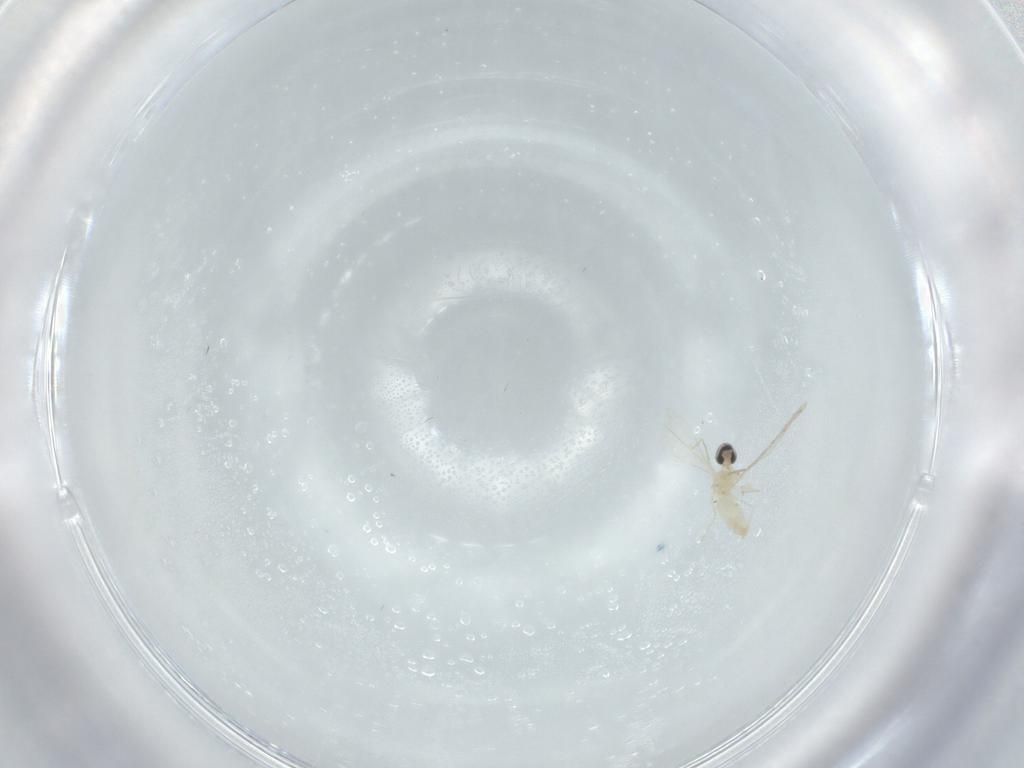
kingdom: Animalia
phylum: Arthropoda
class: Insecta
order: Diptera
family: Cecidomyiidae
